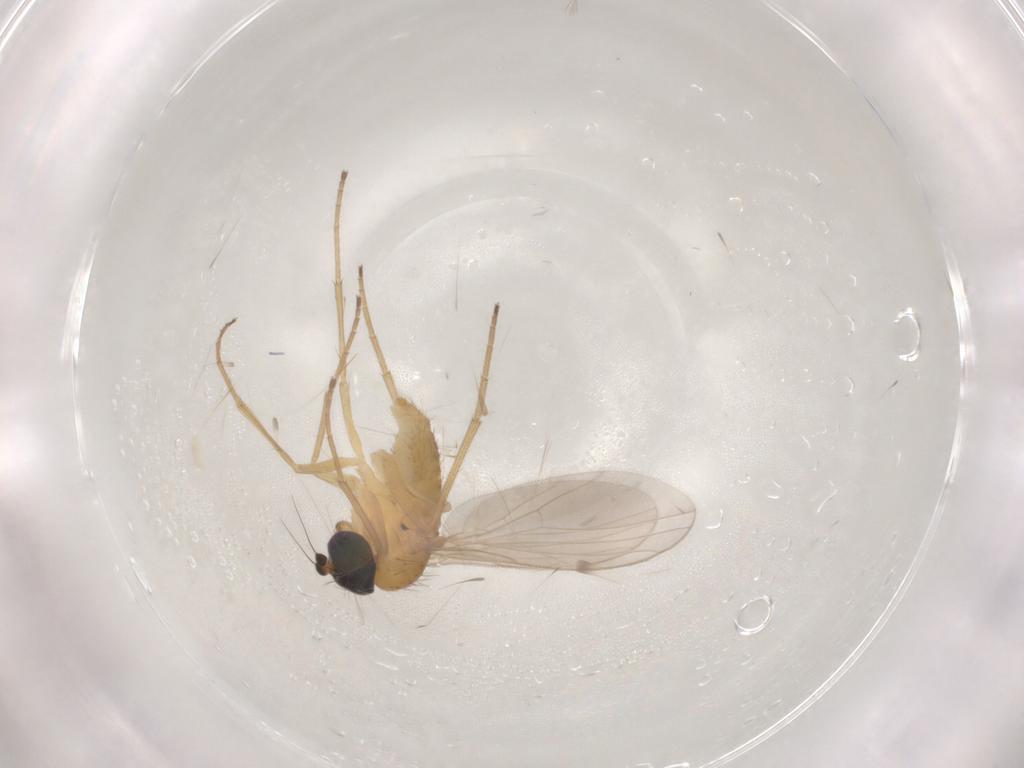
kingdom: Animalia
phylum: Arthropoda
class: Insecta
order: Diptera
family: Dolichopodidae
